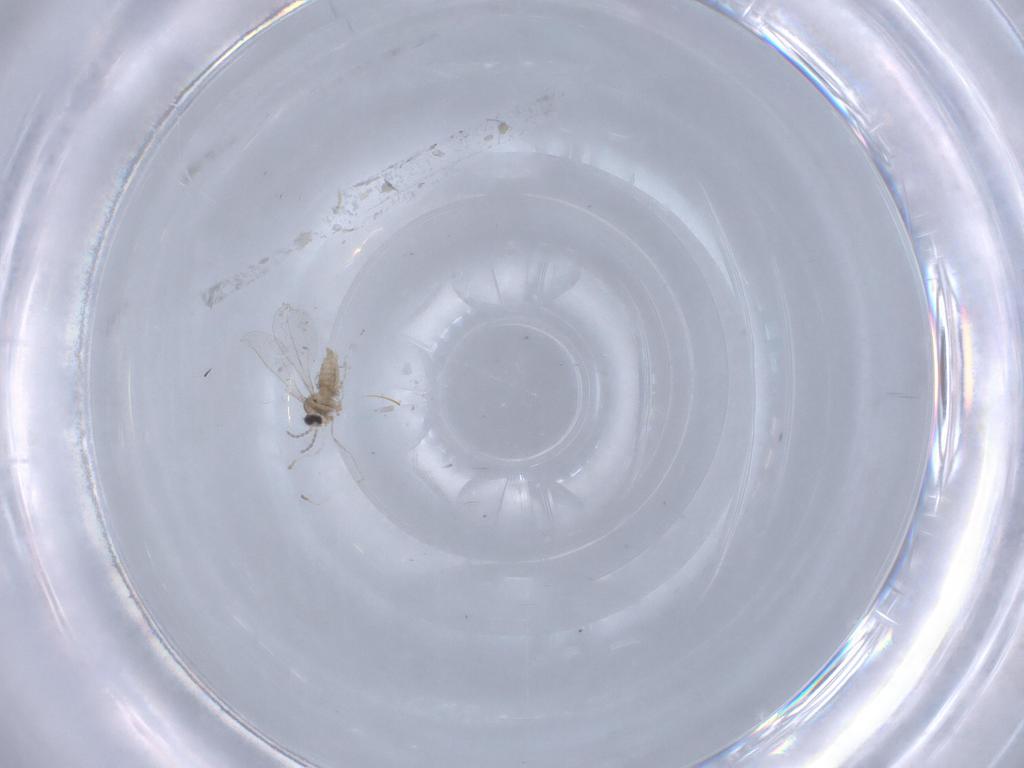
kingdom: Animalia
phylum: Arthropoda
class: Insecta
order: Diptera
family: Cecidomyiidae
